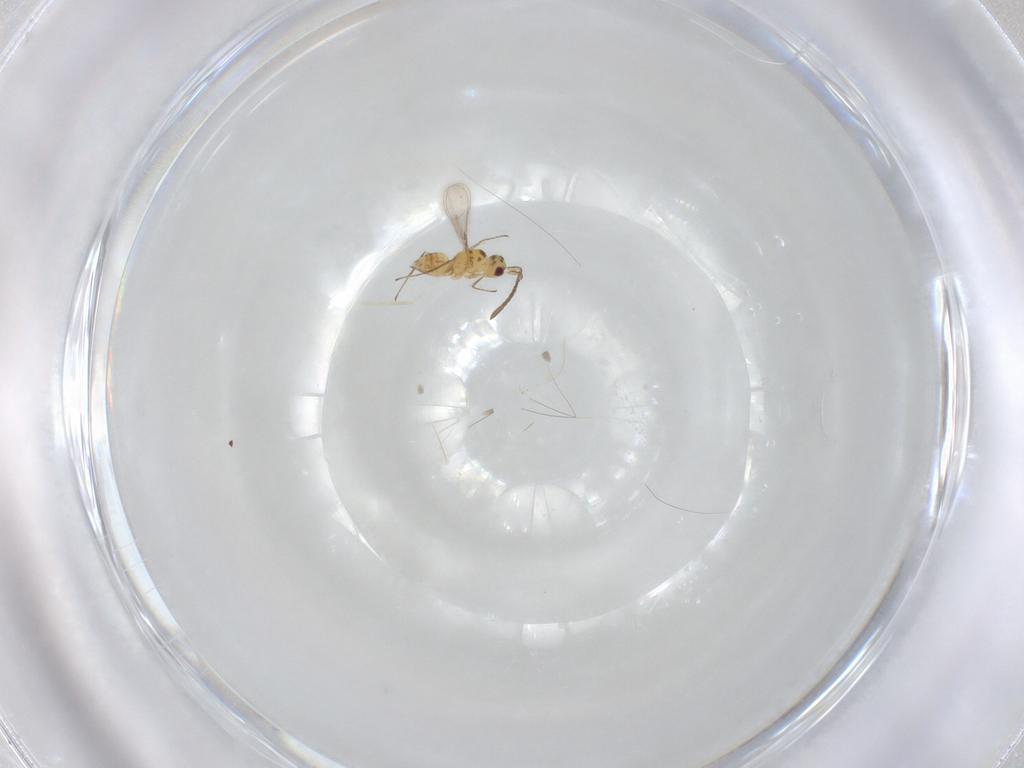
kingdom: Animalia
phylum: Arthropoda
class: Insecta
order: Hymenoptera
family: Mymaridae
